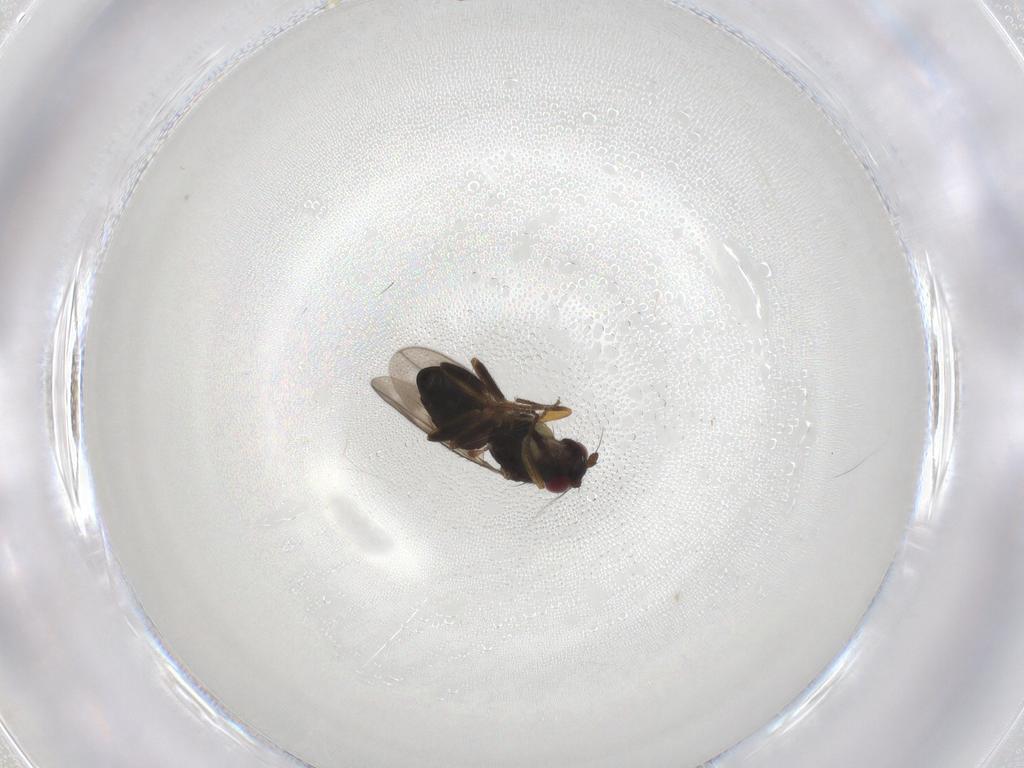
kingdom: Animalia
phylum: Arthropoda
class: Insecta
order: Diptera
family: Sphaeroceridae
